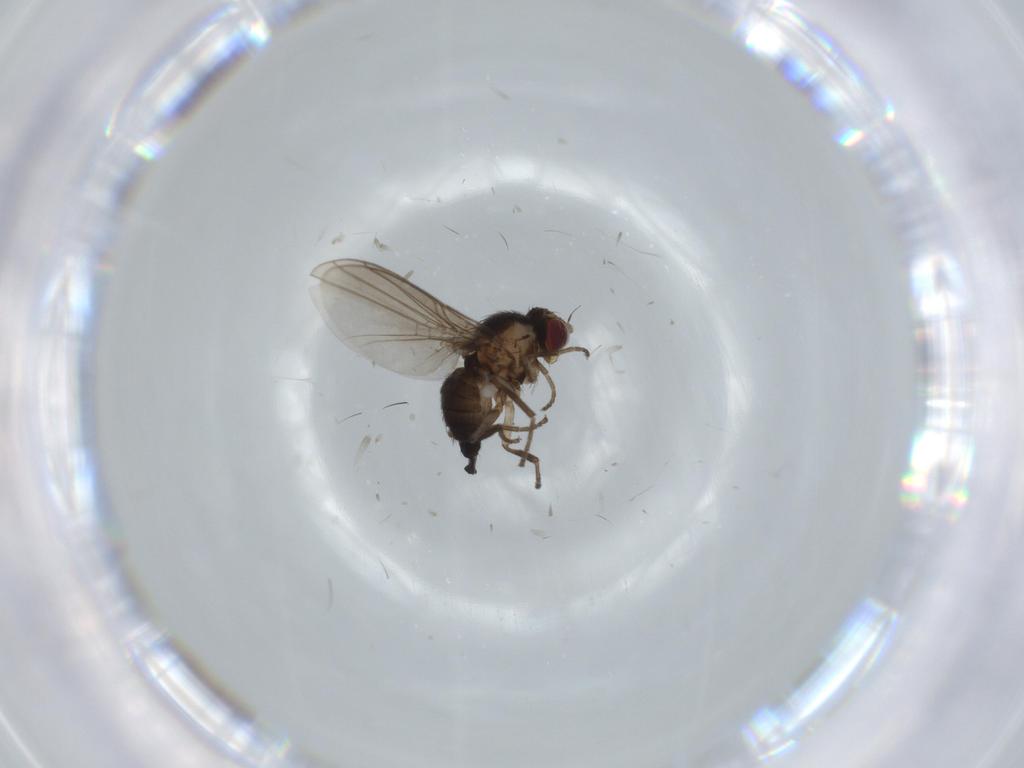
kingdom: Animalia
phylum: Arthropoda
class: Insecta
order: Diptera
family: Agromyzidae
